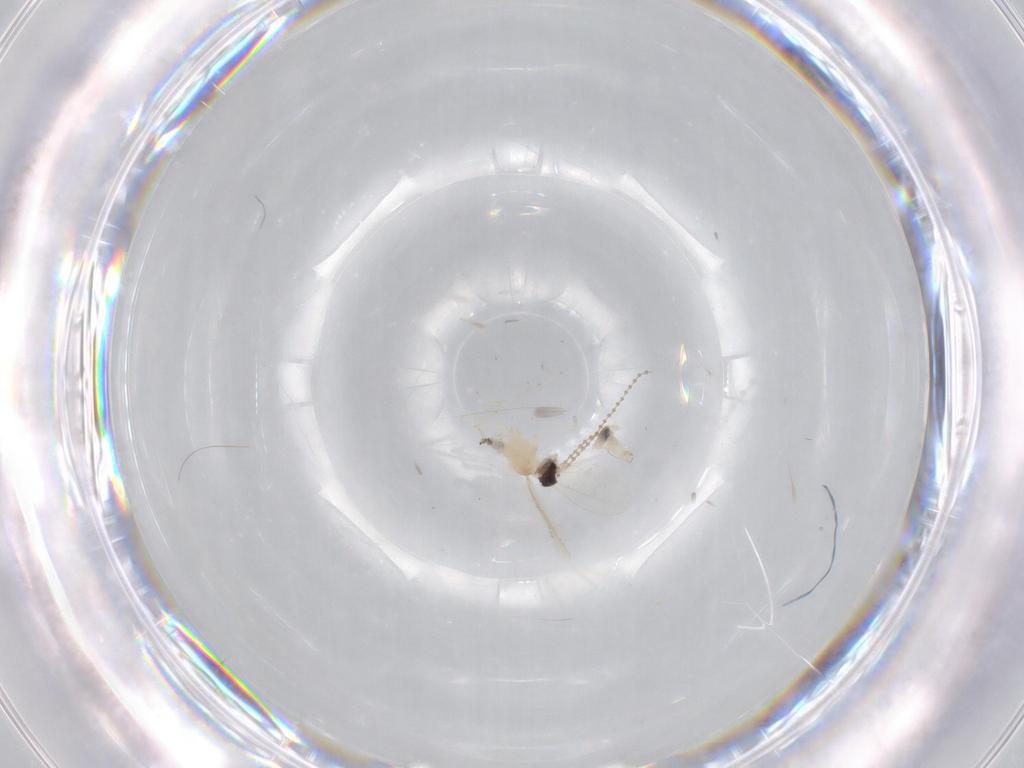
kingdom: Animalia
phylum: Arthropoda
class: Insecta
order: Diptera
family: Cecidomyiidae
